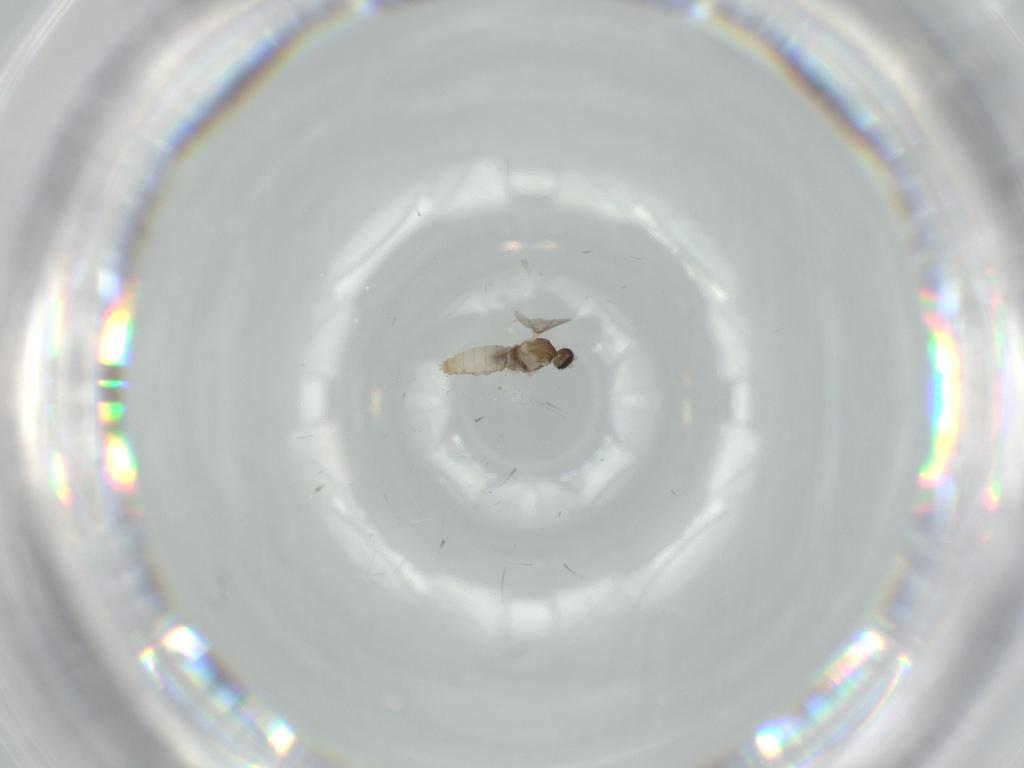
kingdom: Animalia
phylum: Arthropoda
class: Insecta
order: Diptera
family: Cecidomyiidae
